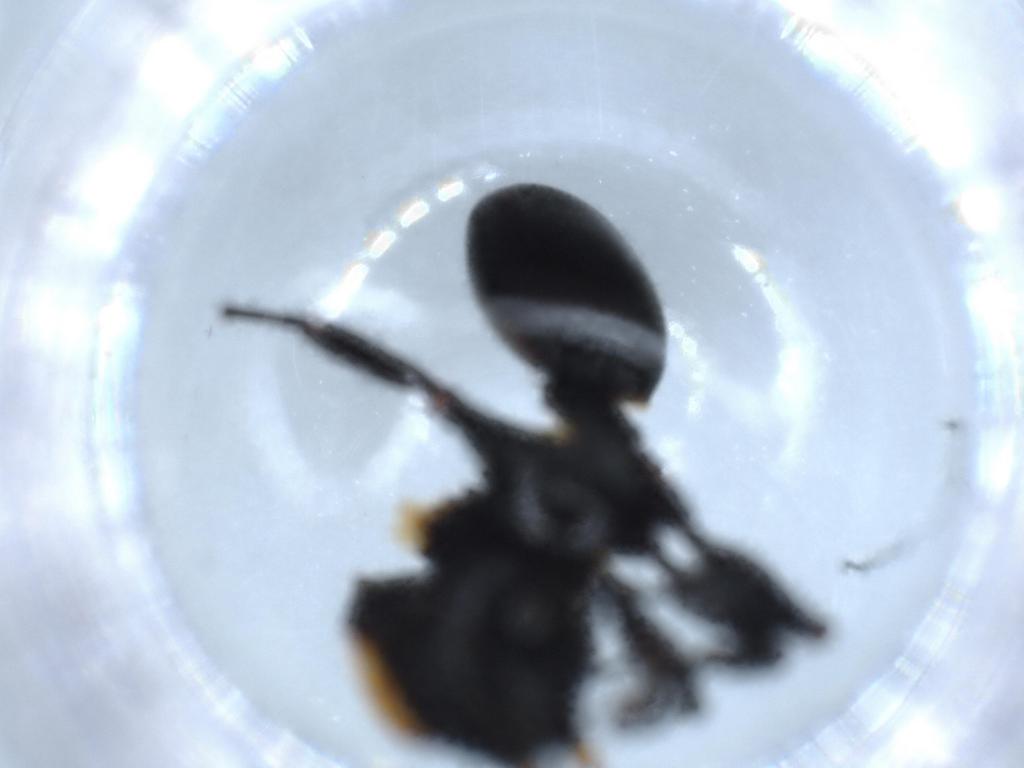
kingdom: Animalia
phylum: Arthropoda
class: Insecta
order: Hymenoptera
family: Formicidae
